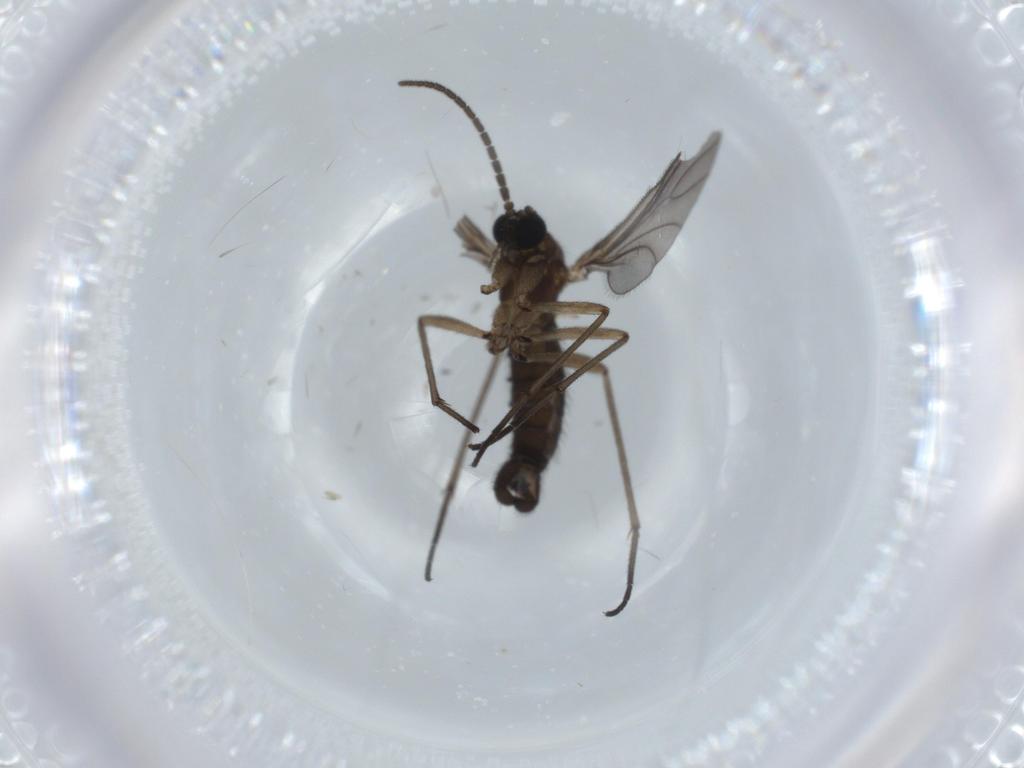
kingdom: Animalia
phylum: Arthropoda
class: Insecta
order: Diptera
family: Sciaridae
